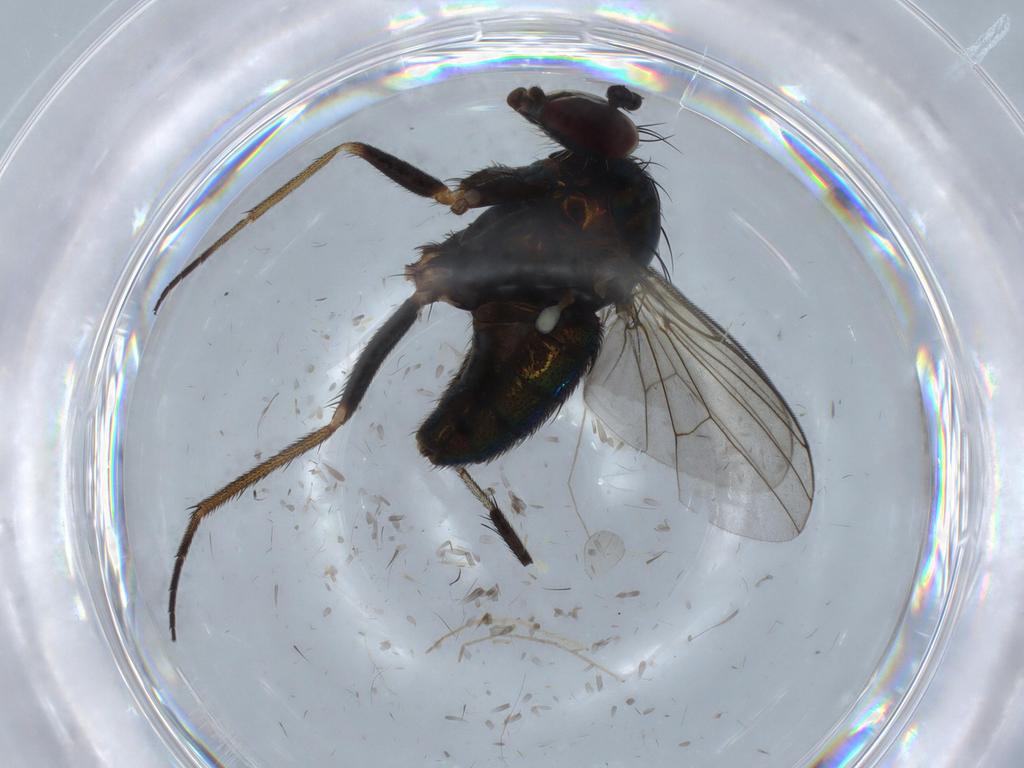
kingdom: Animalia
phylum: Arthropoda
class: Insecta
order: Diptera
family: Dolichopodidae
